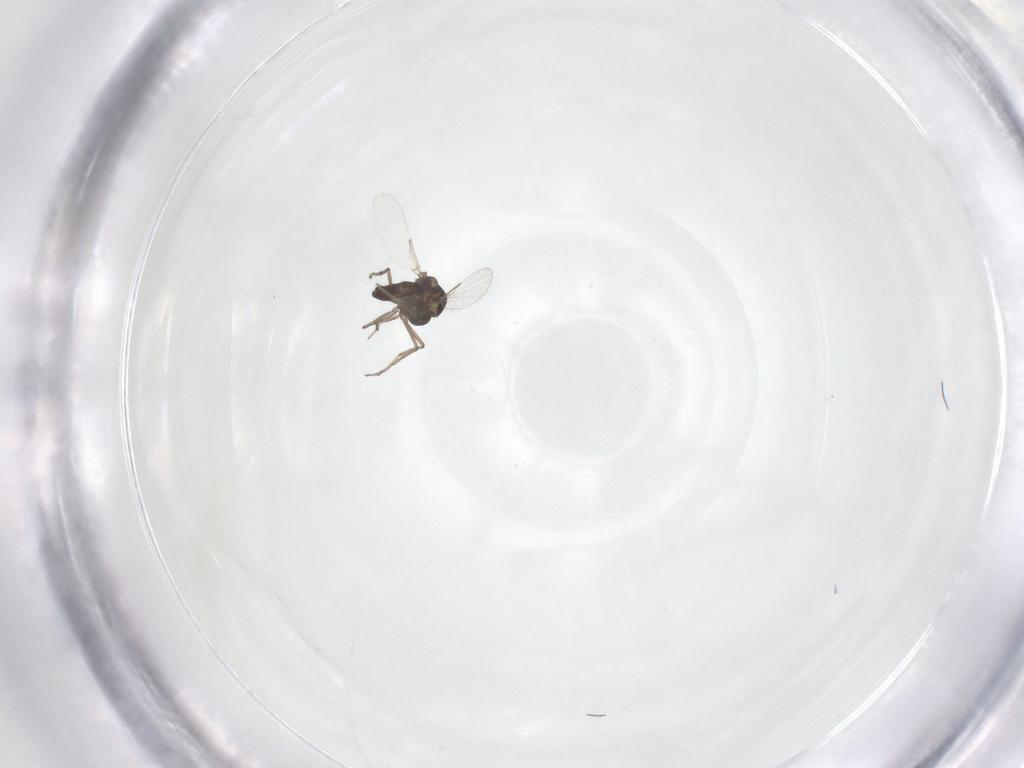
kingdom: Animalia
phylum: Arthropoda
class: Insecta
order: Diptera
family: Ceratopogonidae
